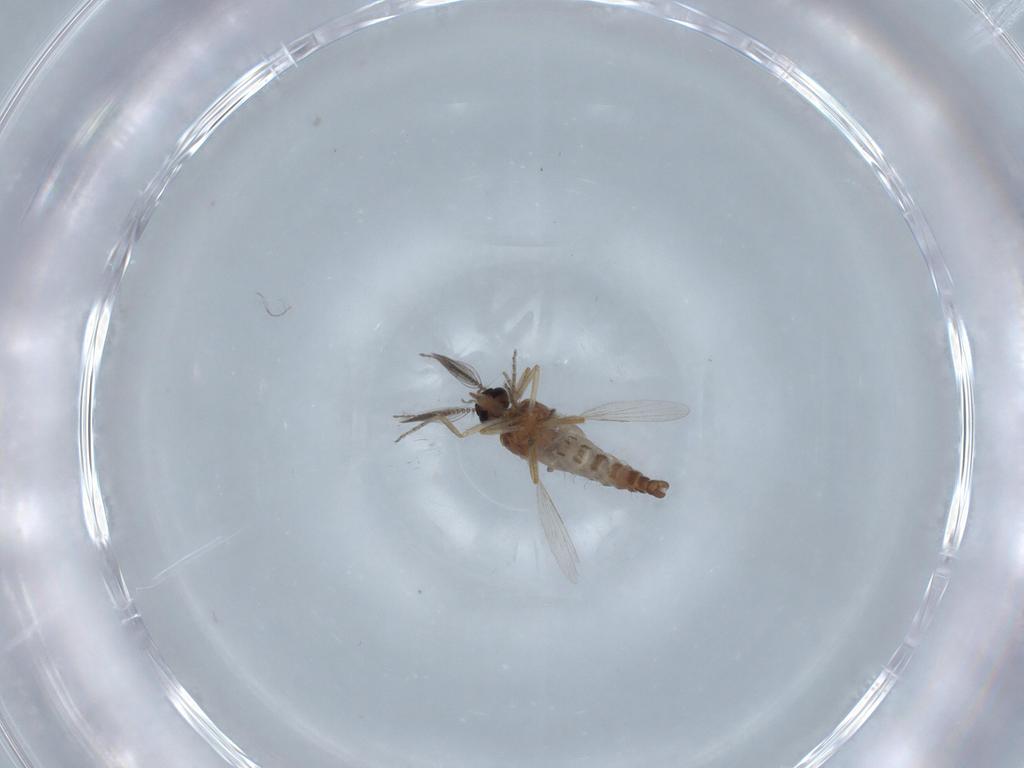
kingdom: Animalia
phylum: Arthropoda
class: Insecta
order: Diptera
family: Ceratopogonidae
